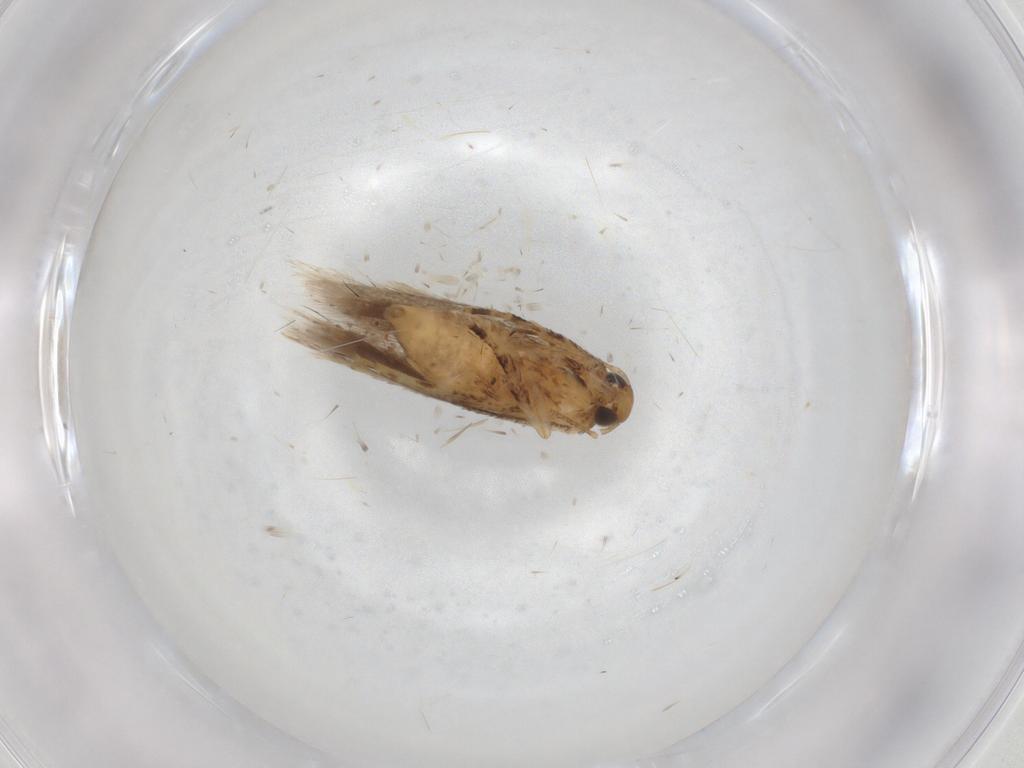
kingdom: Animalia
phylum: Arthropoda
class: Insecta
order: Lepidoptera
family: Gelechiidae
